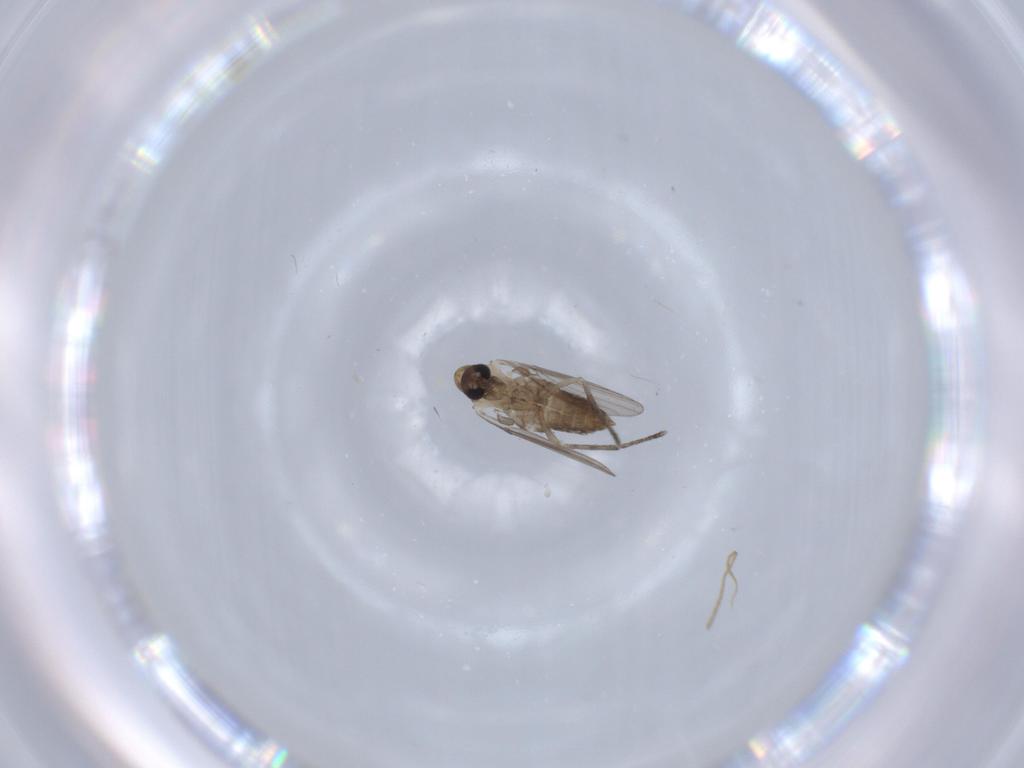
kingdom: Animalia
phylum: Arthropoda
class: Insecta
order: Diptera
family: Psychodidae
